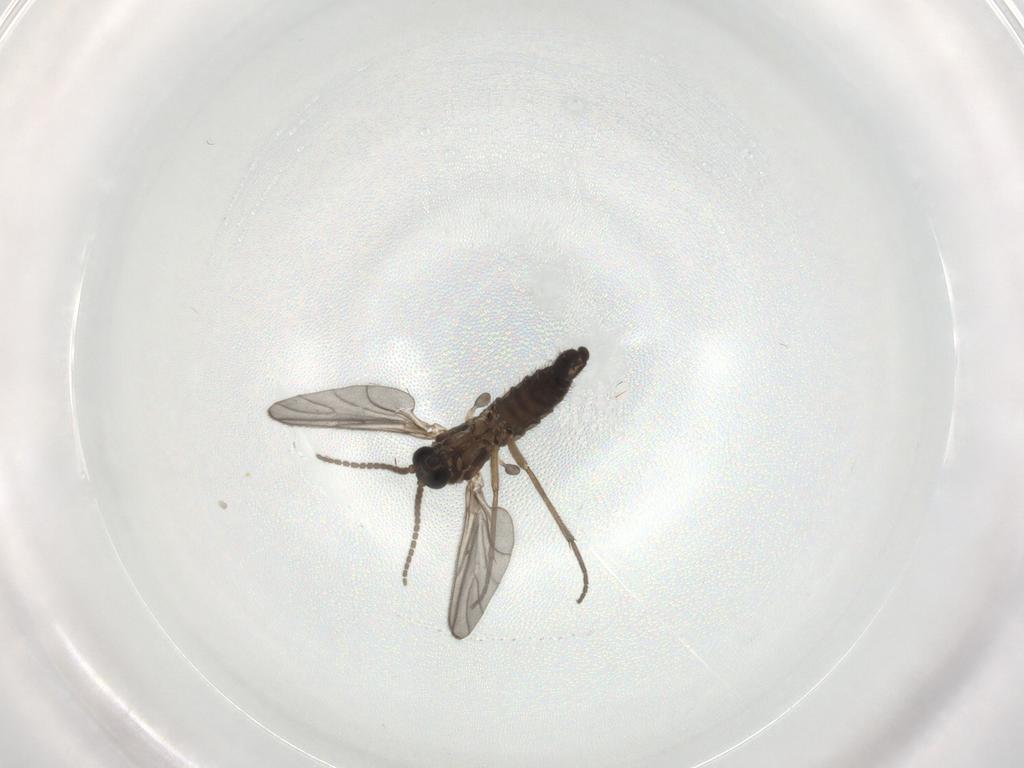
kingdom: Animalia
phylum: Arthropoda
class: Insecta
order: Diptera
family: Sciaridae
